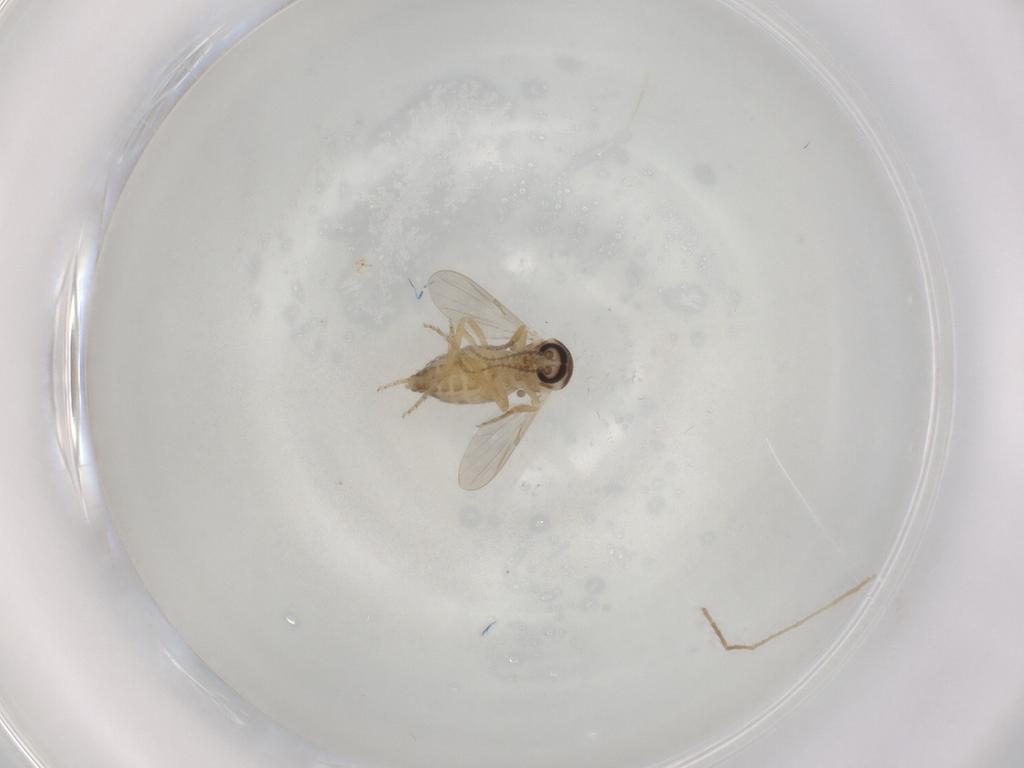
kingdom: Animalia
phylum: Arthropoda
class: Insecta
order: Diptera
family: Ceratopogonidae
